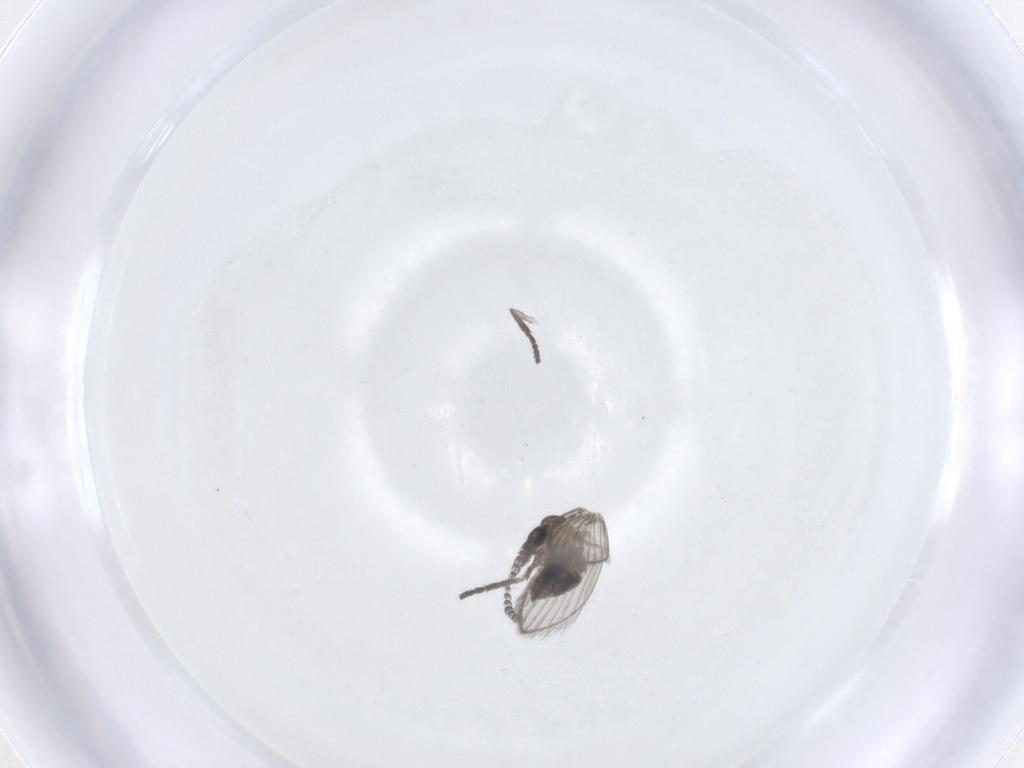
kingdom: Animalia
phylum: Arthropoda
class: Insecta
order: Diptera
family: Psychodidae
